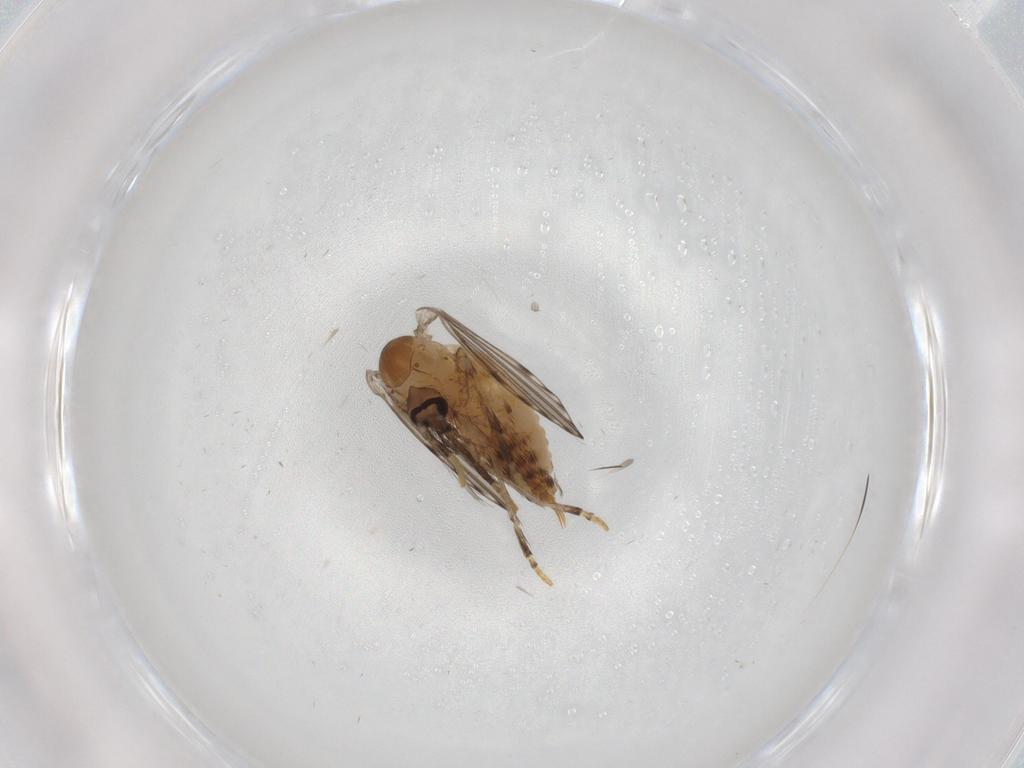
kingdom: Animalia
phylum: Arthropoda
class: Insecta
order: Diptera
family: Psychodidae
